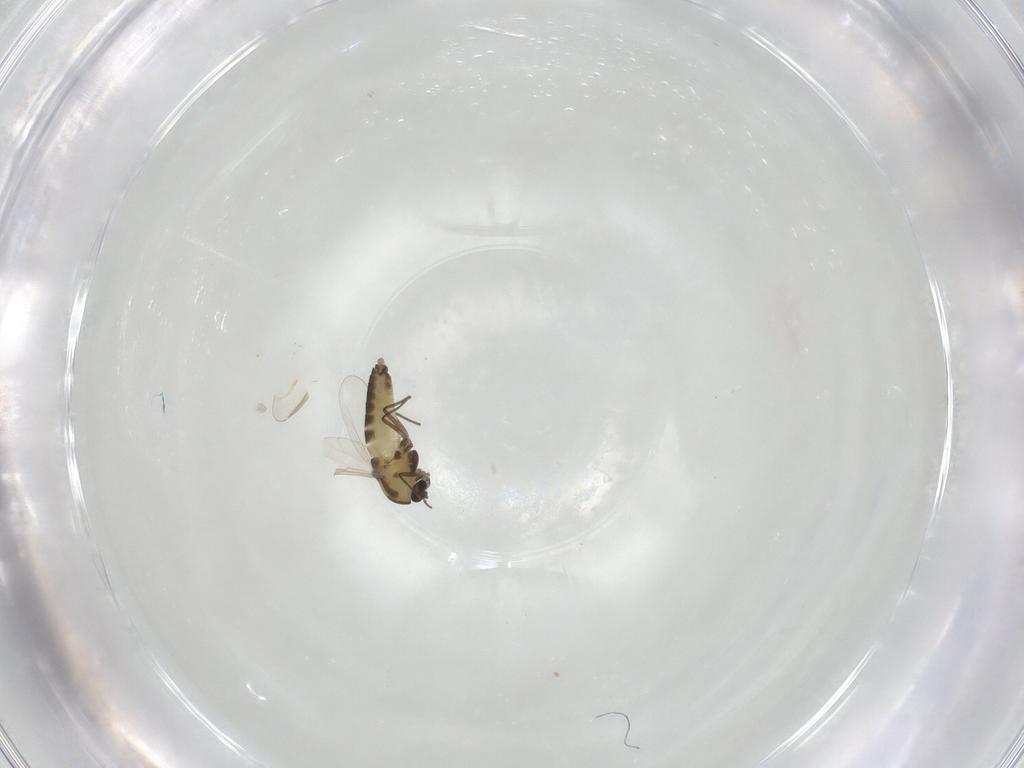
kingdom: Animalia
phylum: Arthropoda
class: Insecta
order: Diptera
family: Chironomidae
